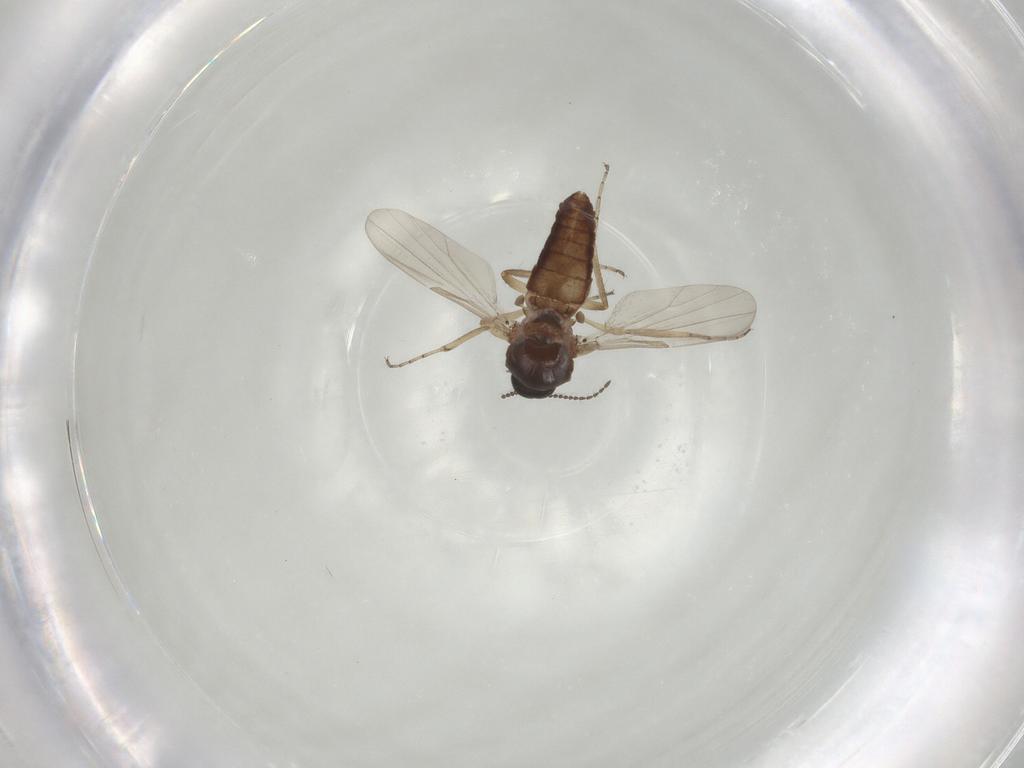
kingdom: Animalia
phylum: Arthropoda
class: Insecta
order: Diptera
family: Ceratopogonidae
